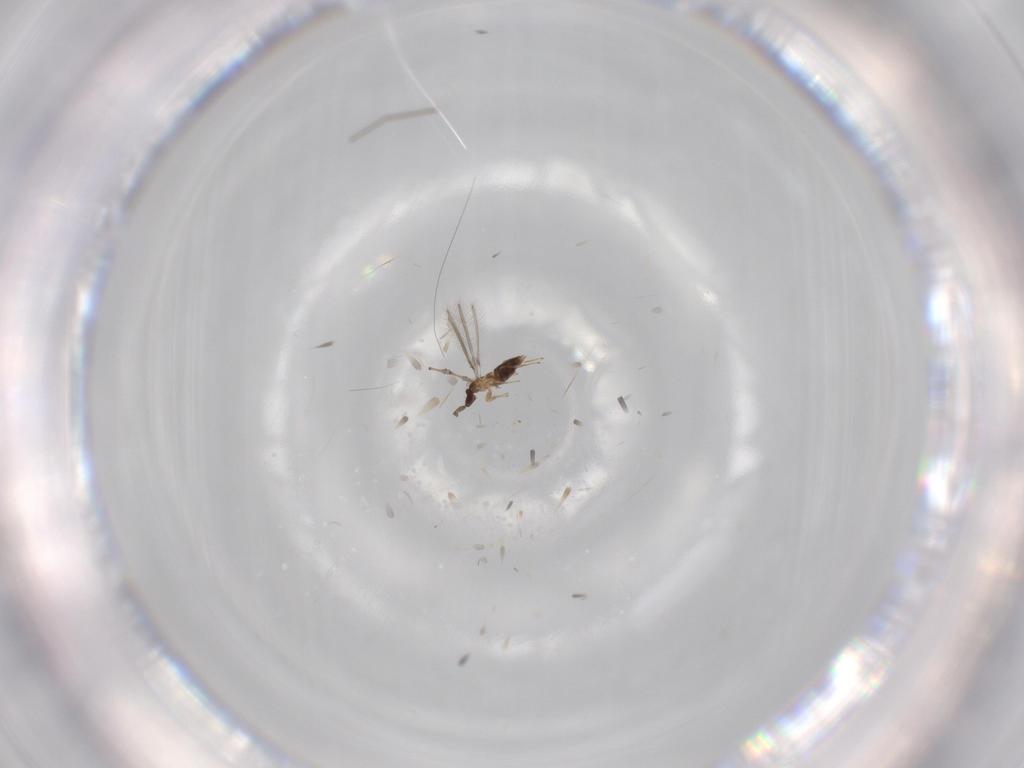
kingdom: Animalia
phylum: Arthropoda
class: Insecta
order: Hymenoptera
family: Mymaridae
